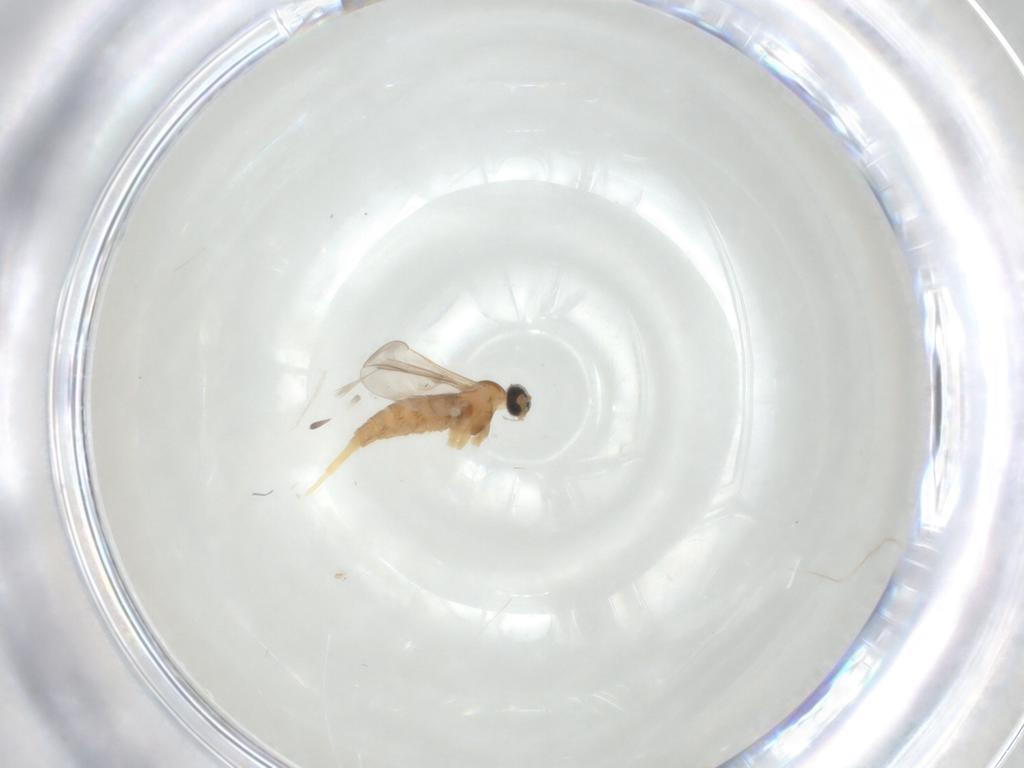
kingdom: Animalia
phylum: Arthropoda
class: Insecta
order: Diptera
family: Cecidomyiidae
